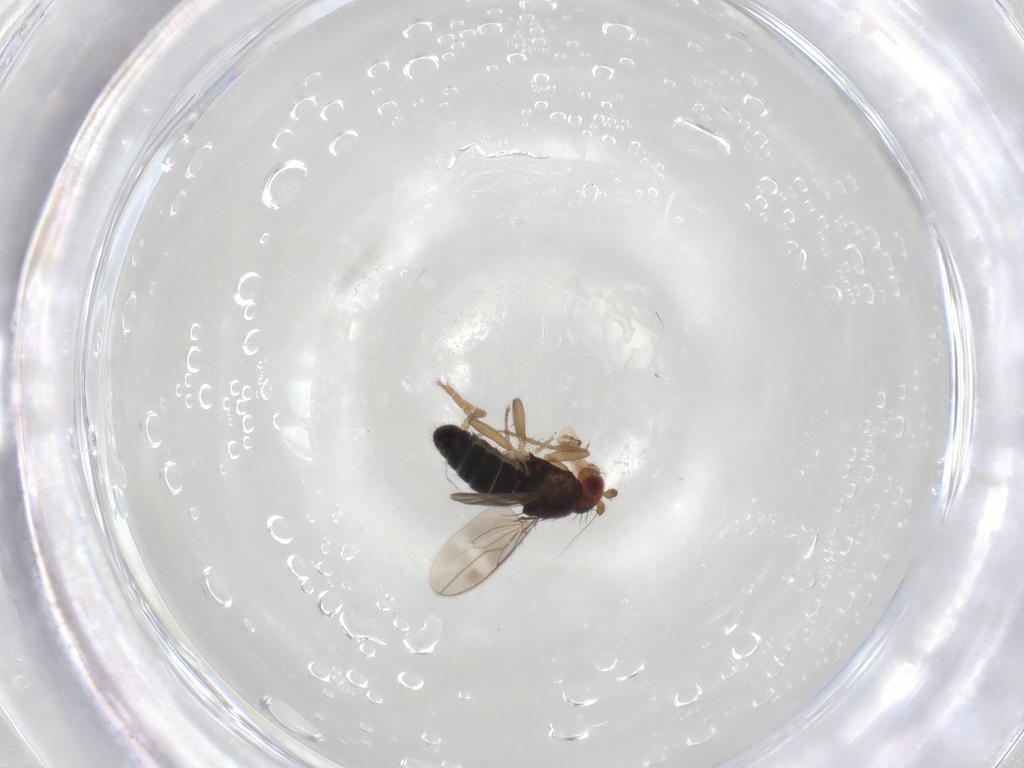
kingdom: Animalia
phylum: Arthropoda
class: Insecta
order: Diptera
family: Sphaeroceridae
